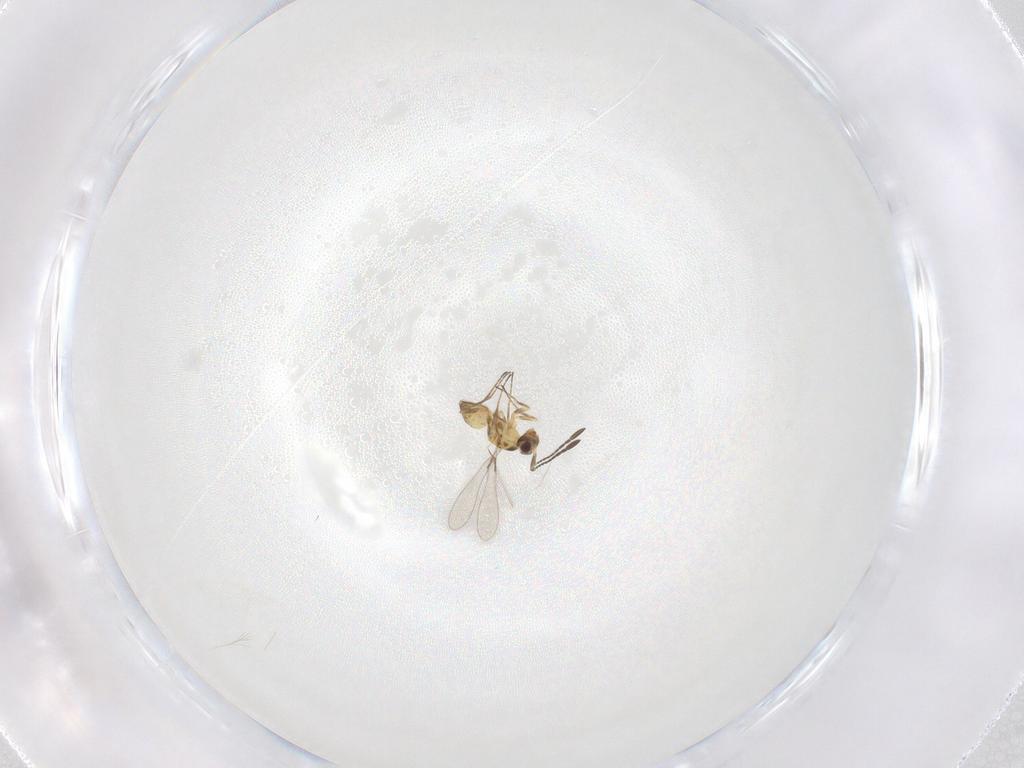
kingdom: Animalia
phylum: Arthropoda
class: Insecta
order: Hymenoptera
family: Mymaridae
